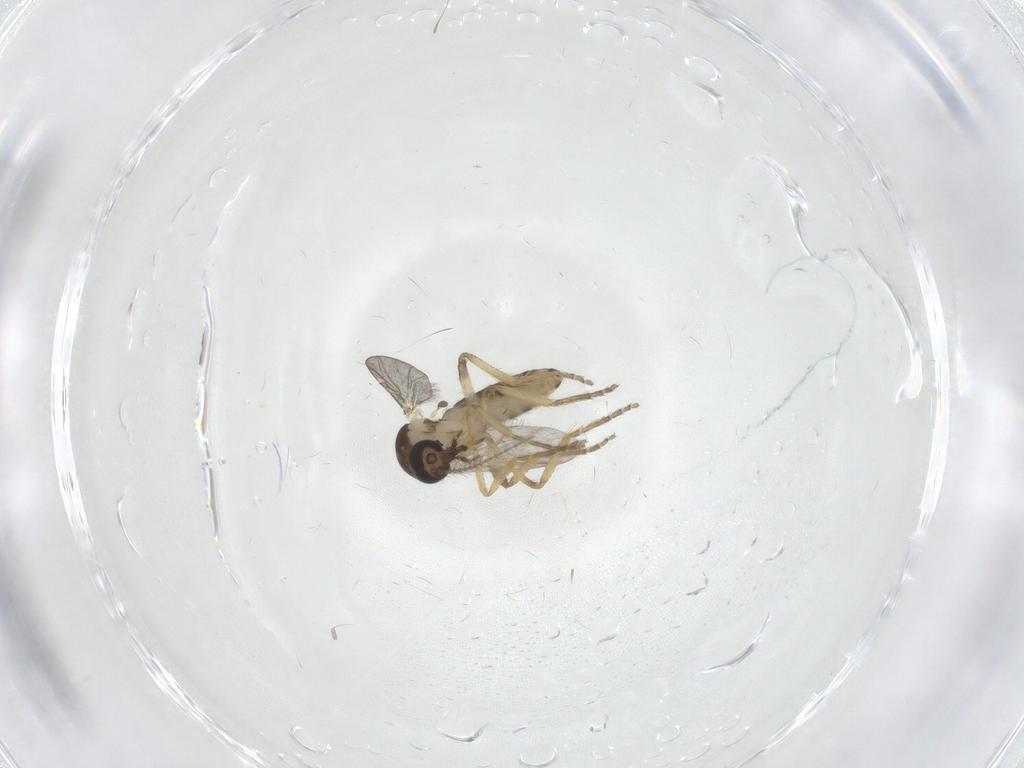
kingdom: Animalia
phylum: Arthropoda
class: Insecta
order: Diptera
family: Ceratopogonidae
